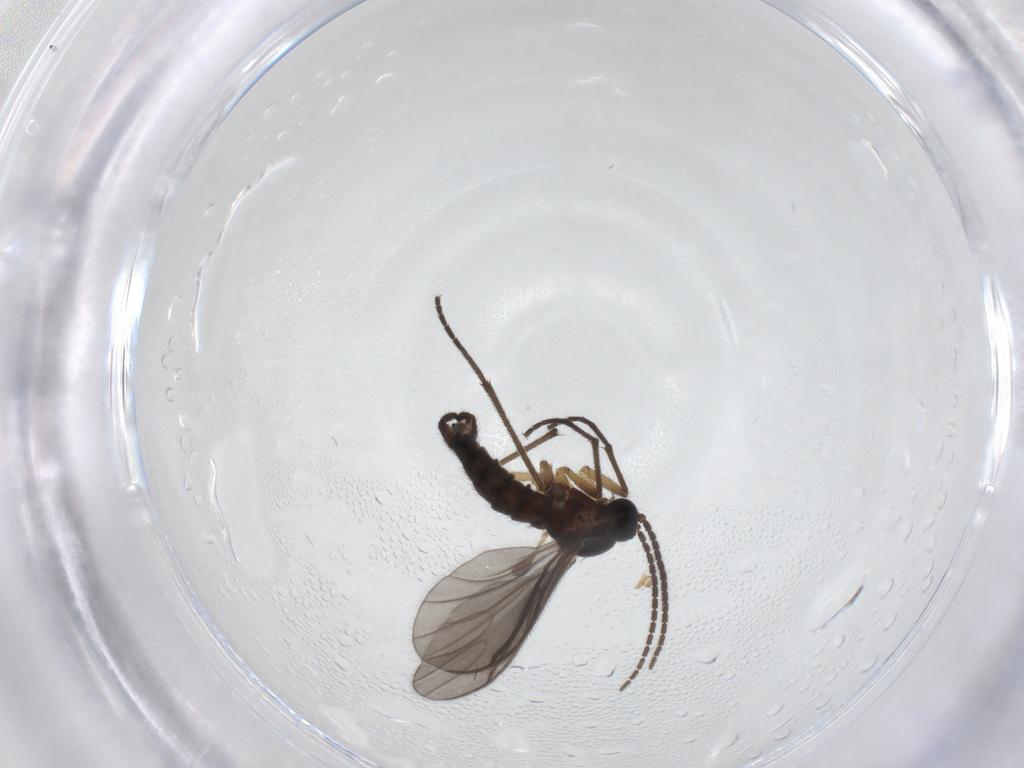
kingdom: Animalia
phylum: Arthropoda
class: Insecta
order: Diptera
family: Sciaridae
